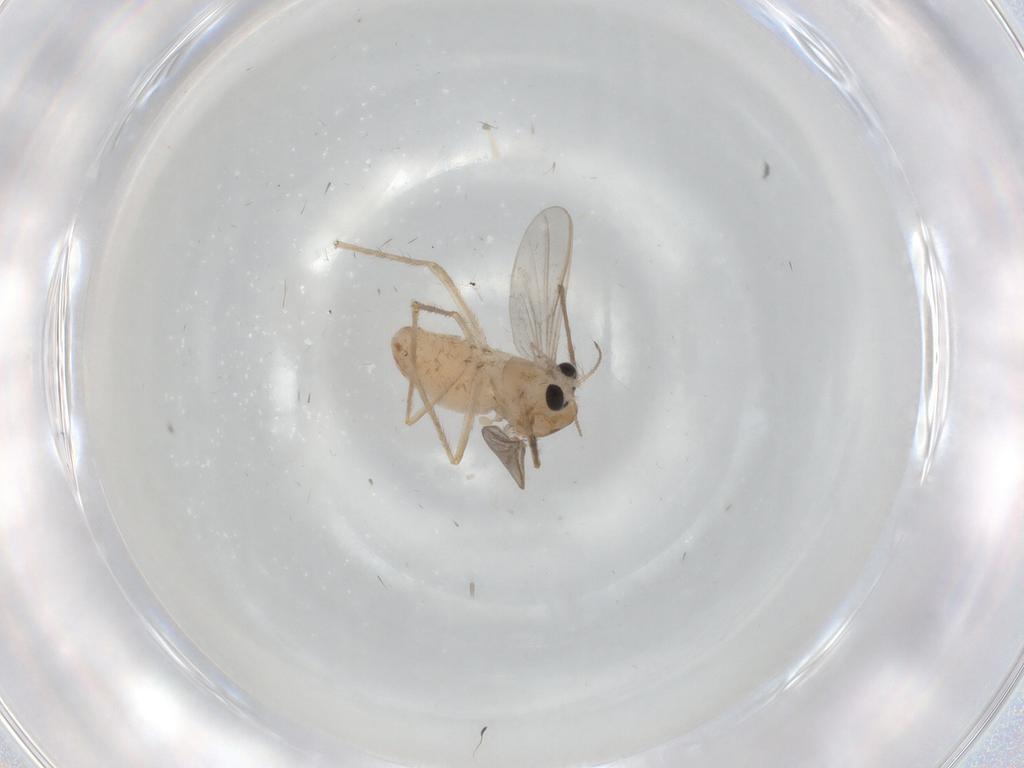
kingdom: Animalia
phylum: Arthropoda
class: Insecta
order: Diptera
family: Chironomidae
